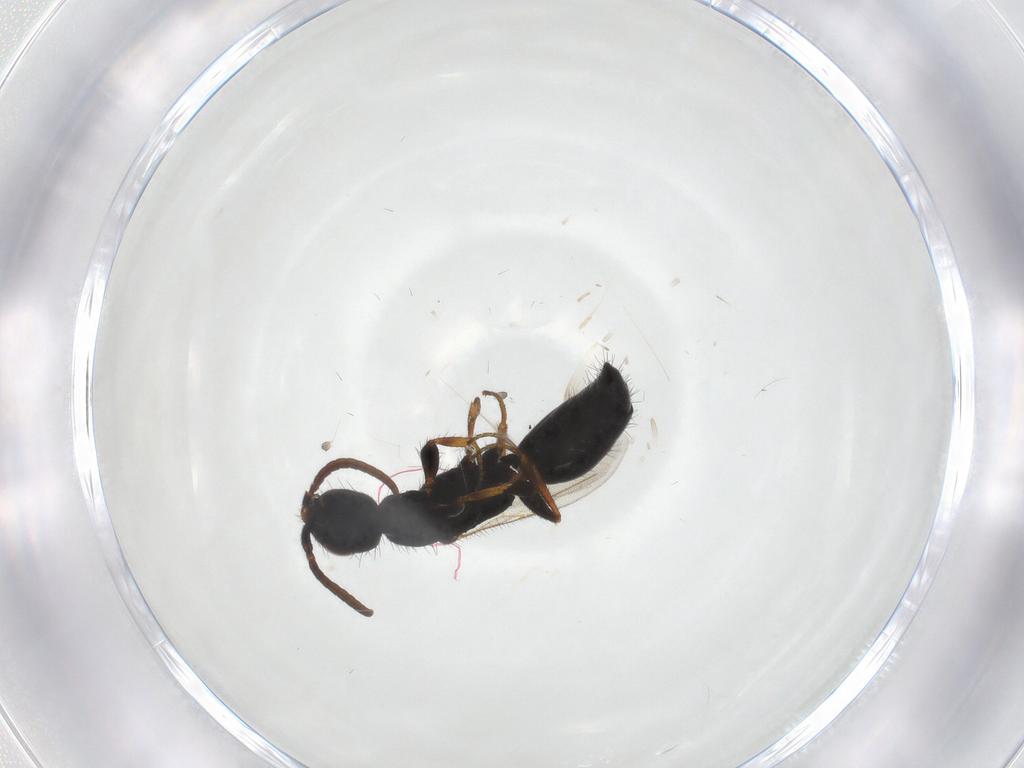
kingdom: Animalia
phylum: Arthropoda
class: Insecta
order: Hymenoptera
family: Bethylidae
